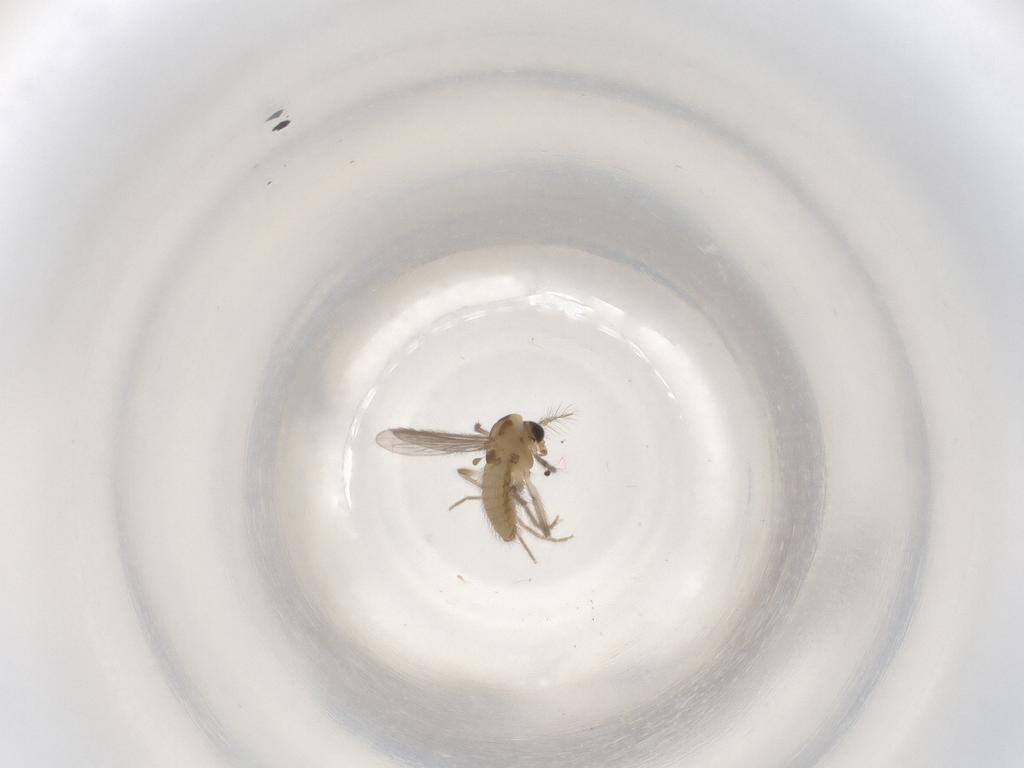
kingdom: Animalia
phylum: Arthropoda
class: Insecta
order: Diptera
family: Chironomidae
